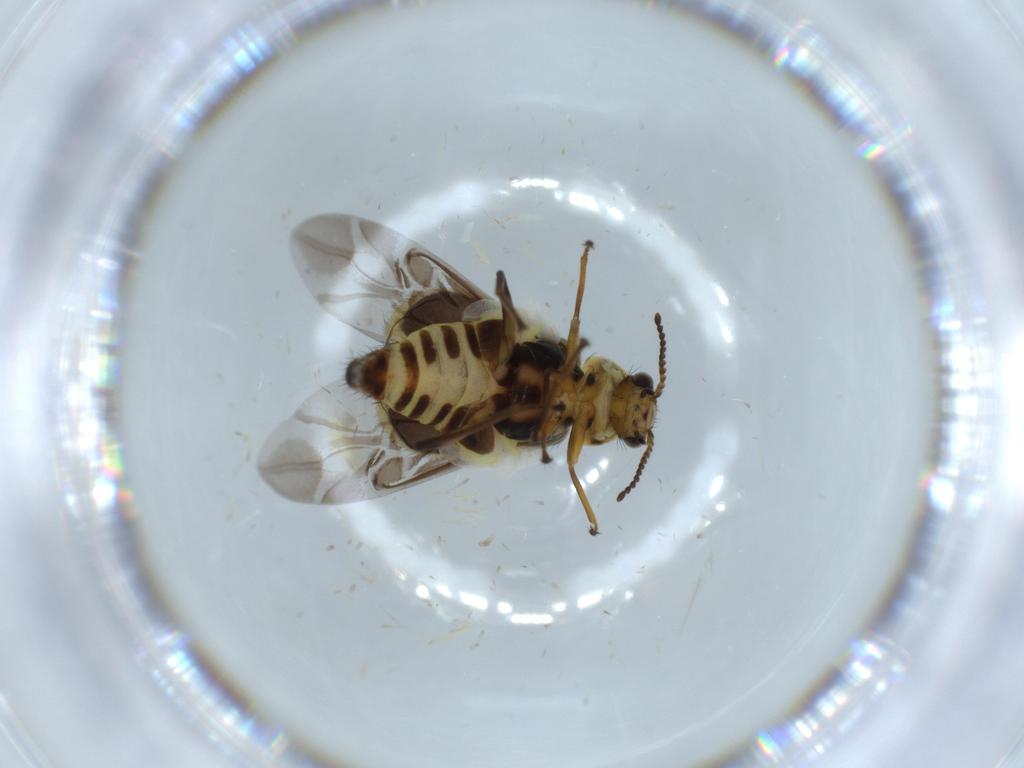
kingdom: Animalia
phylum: Arthropoda
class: Insecta
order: Coleoptera
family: Melyridae
